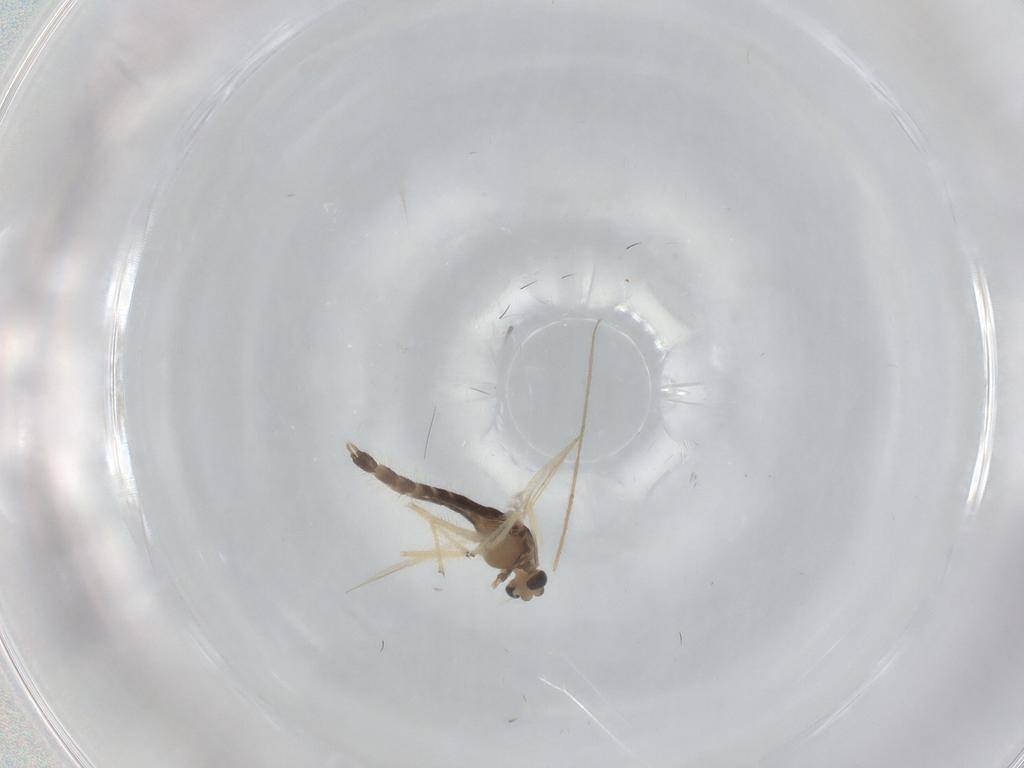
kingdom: Animalia
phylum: Arthropoda
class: Insecta
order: Diptera
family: Chironomidae
